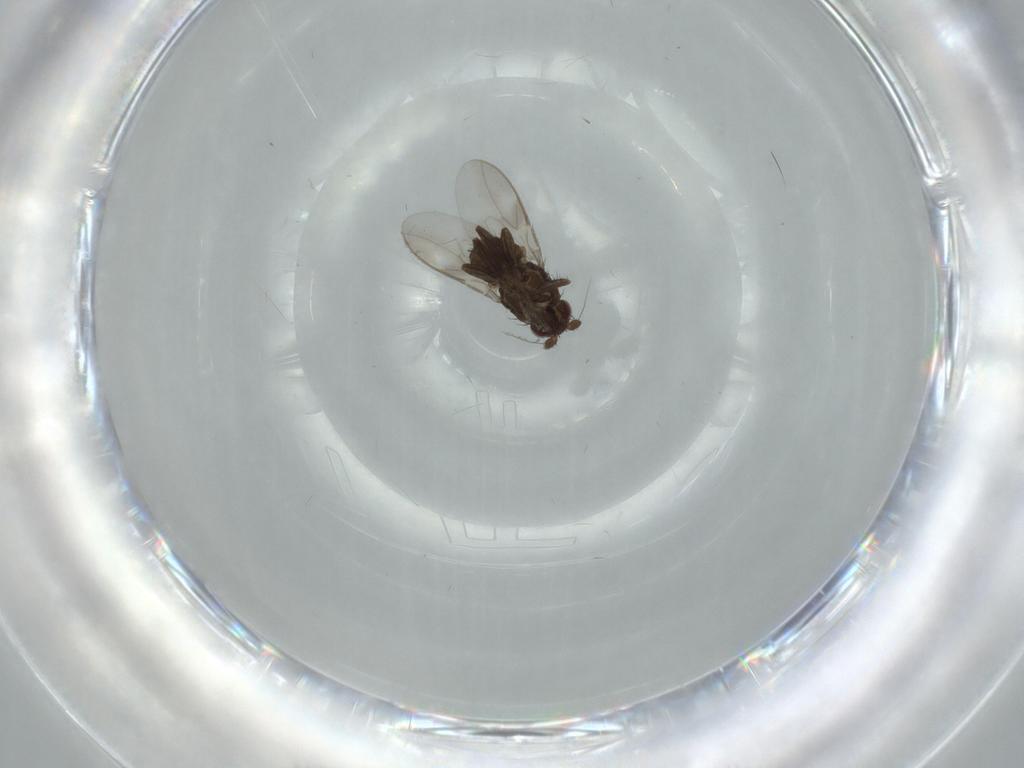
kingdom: Animalia
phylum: Arthropoda
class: Insecta
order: Diptera
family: Sphaeroceridae
